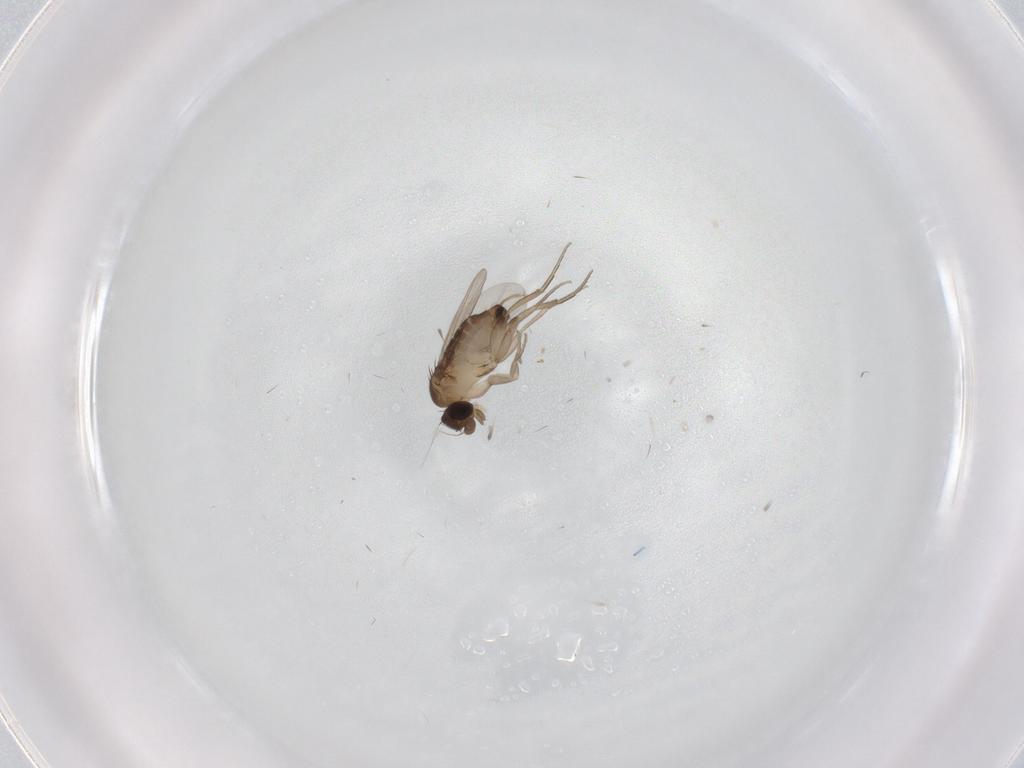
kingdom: Animalia
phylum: Arthropoda
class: Insecta
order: Diptera
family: Phoridae
